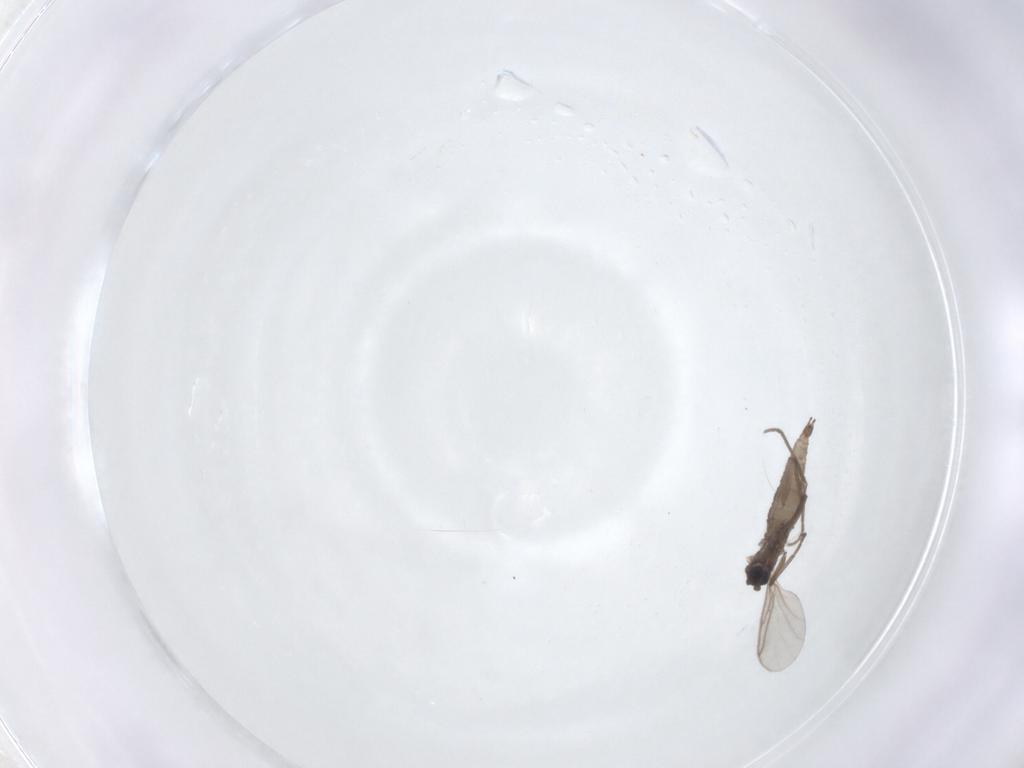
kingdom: Animalia
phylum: Arthropoda
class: Insecta
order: Diptera
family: Sciaridae
